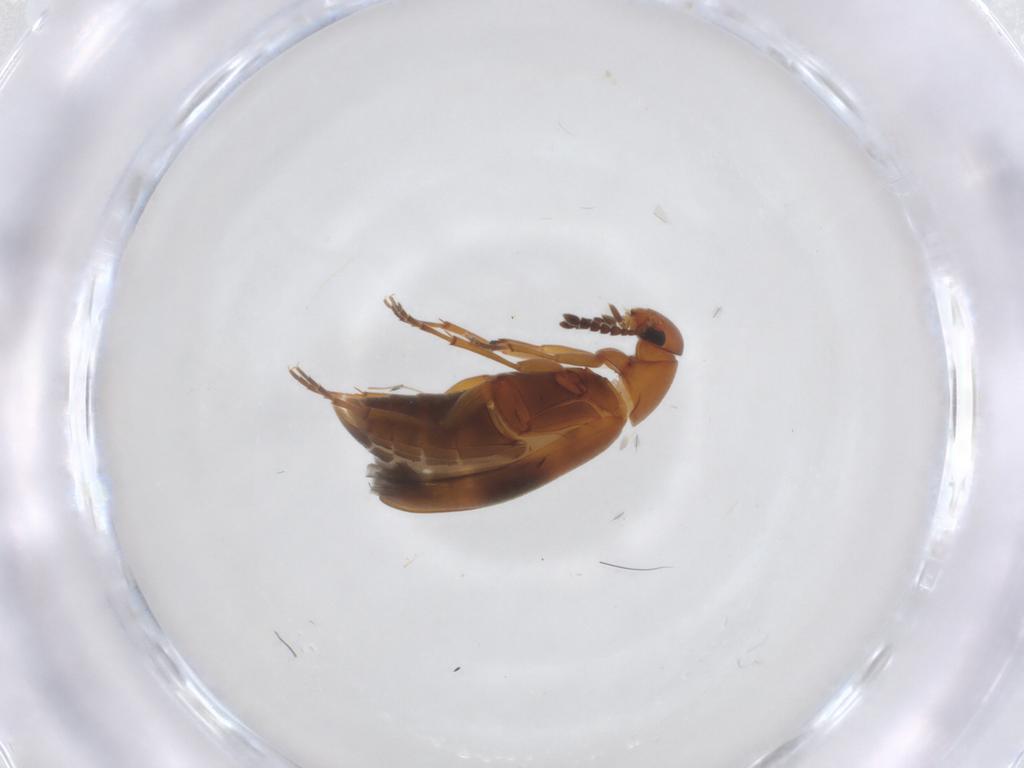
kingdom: Animalia
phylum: Arthropoda
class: Insecta
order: Coleoptera
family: Scraptiidae
